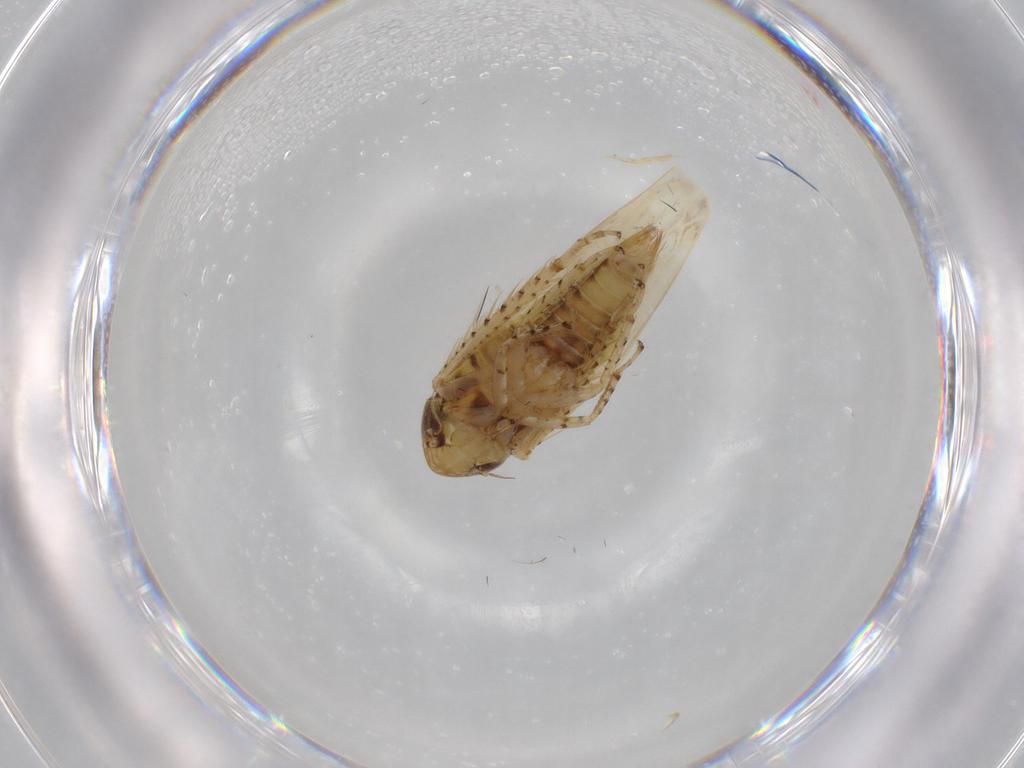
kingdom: Animalia
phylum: Arthropoda
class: Insecta
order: Hemiptera
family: Cicadellidae
